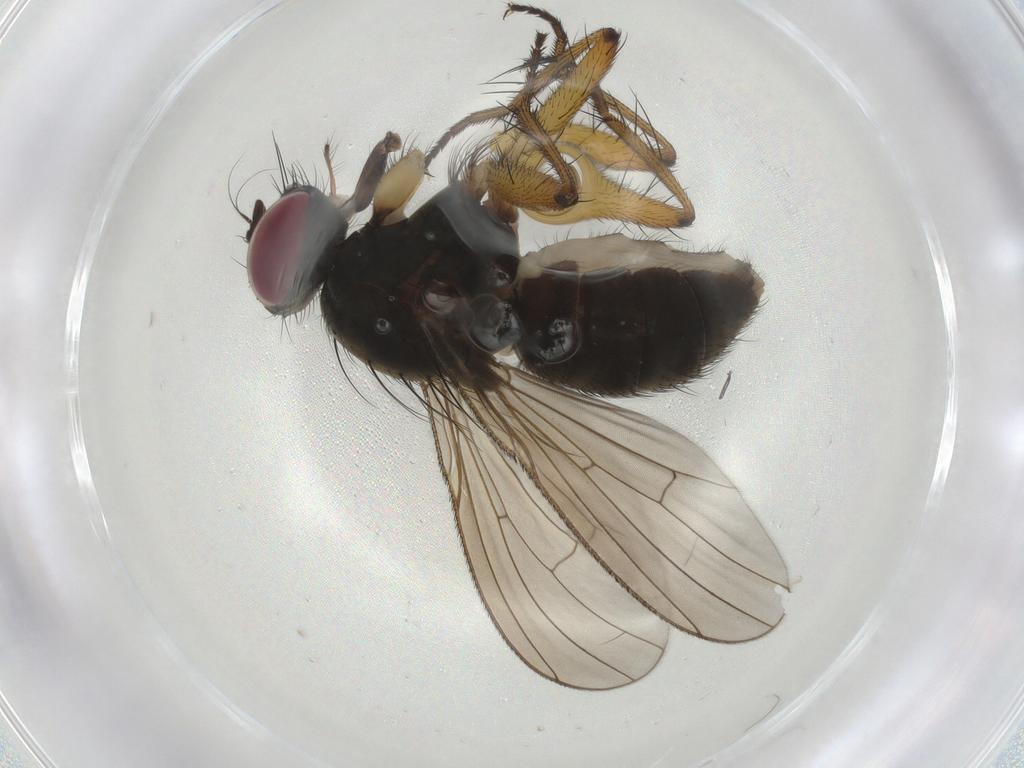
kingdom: Animalia
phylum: Arthropoda
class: Insecta
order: Diptera
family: Muscidae
